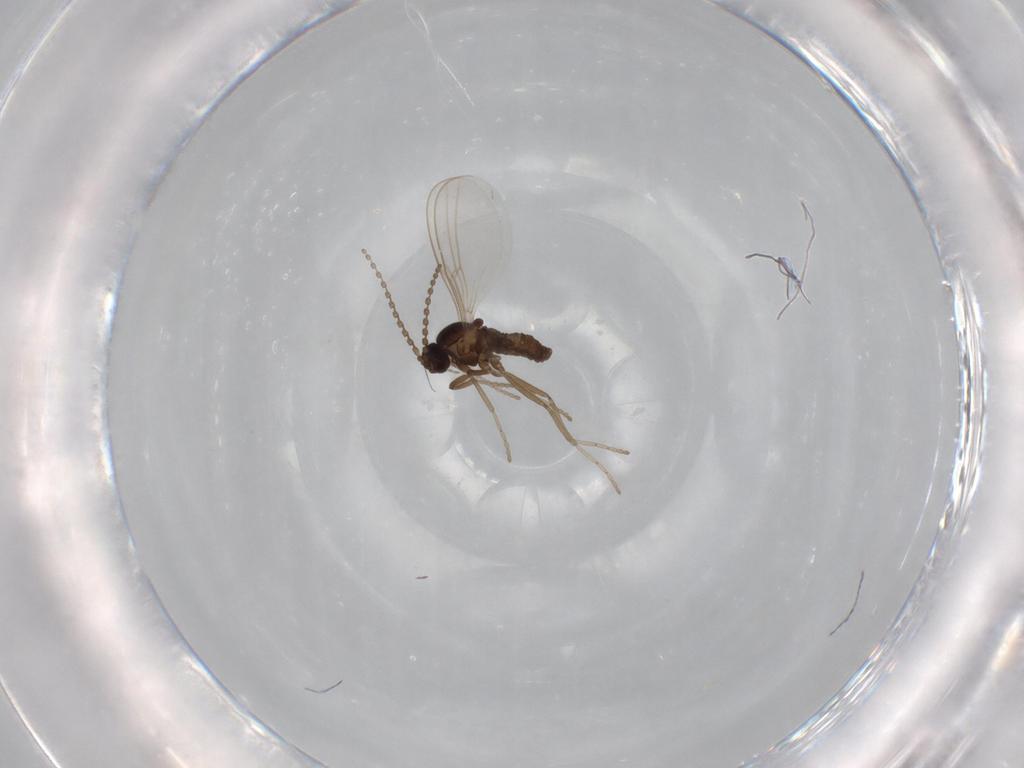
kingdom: Animalia
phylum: Arthropoda
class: Insecta
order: Diptera
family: Cecidomyiidae
